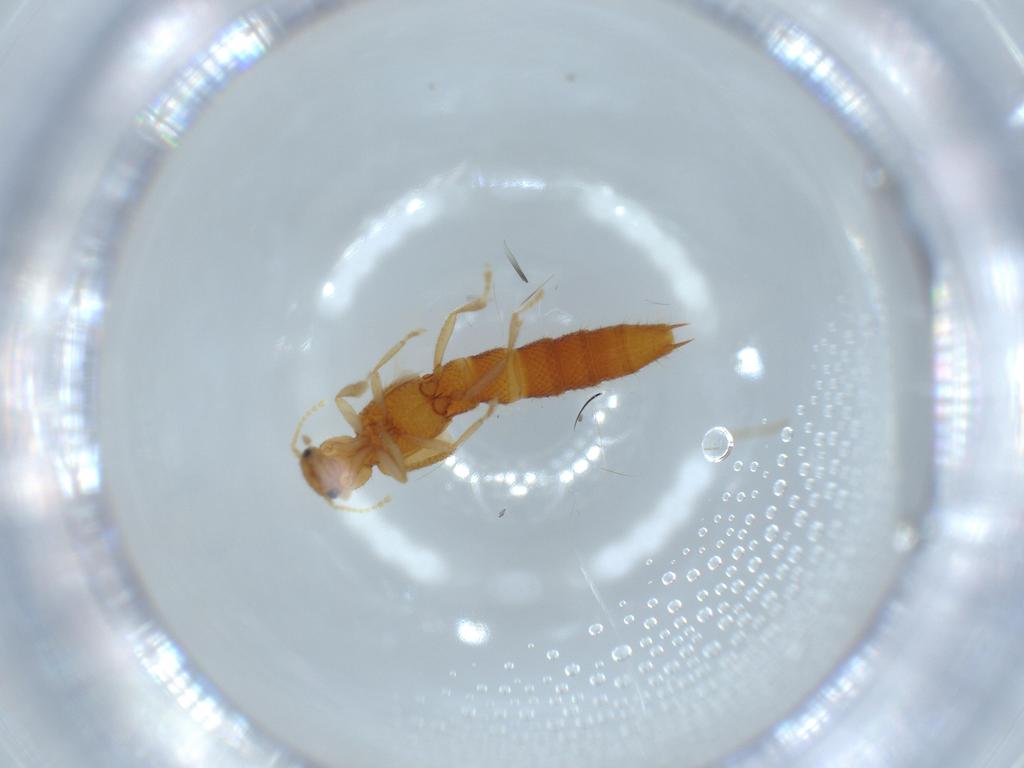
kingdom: Animalia
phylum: Arthropoda
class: Insecta
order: Coleoptera
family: Chrysomelidae
